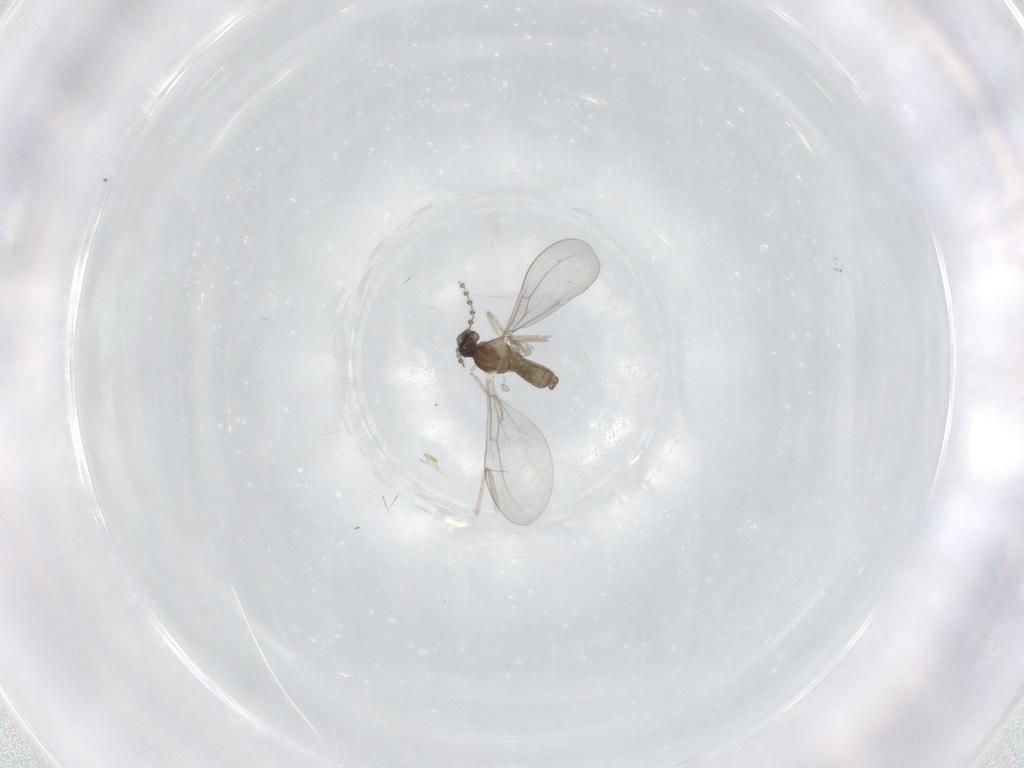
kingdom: Animalia
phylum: Arthropoda
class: Insecta
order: Diptera
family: Cecidomyiidae
